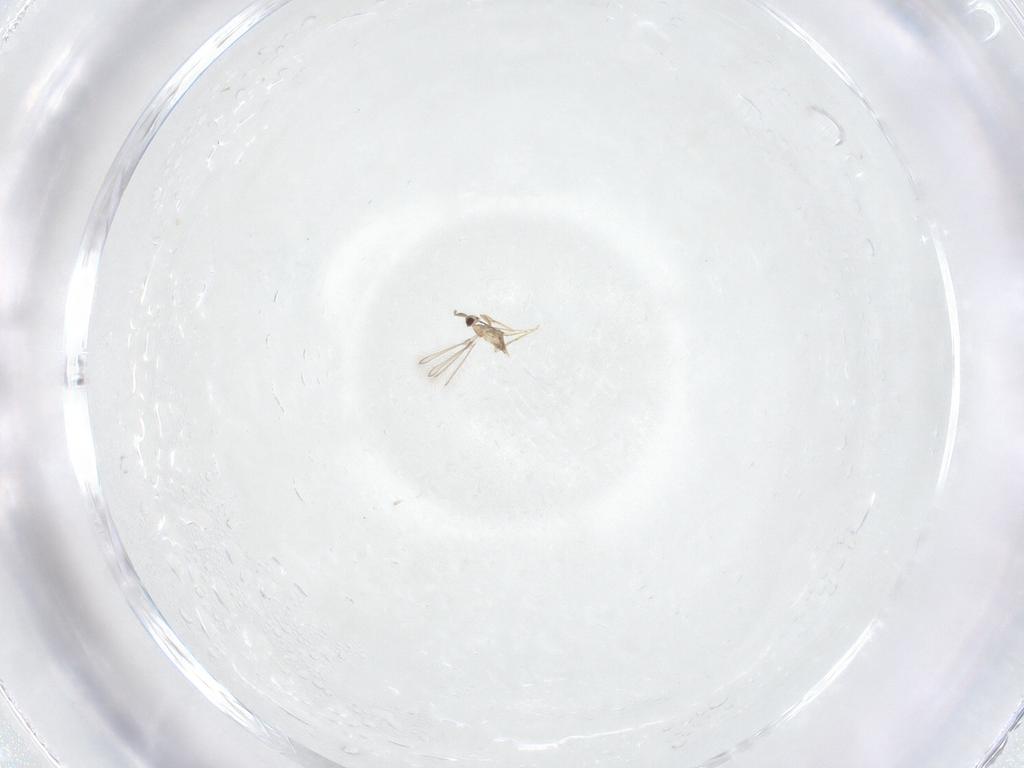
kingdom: Animalia
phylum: Arthropoda
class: Insecta
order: Hymenoptera
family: Mymaridae
